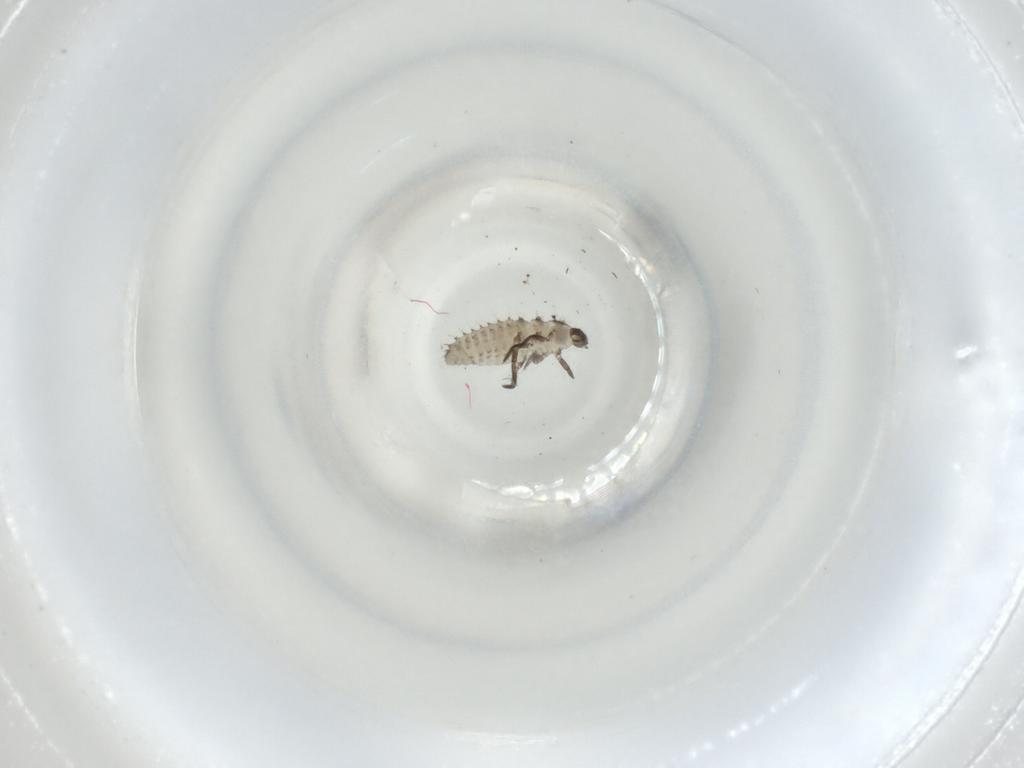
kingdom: Animalia
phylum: Arthropoda
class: Insecta
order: Coleoptera
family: Coccinellidae
